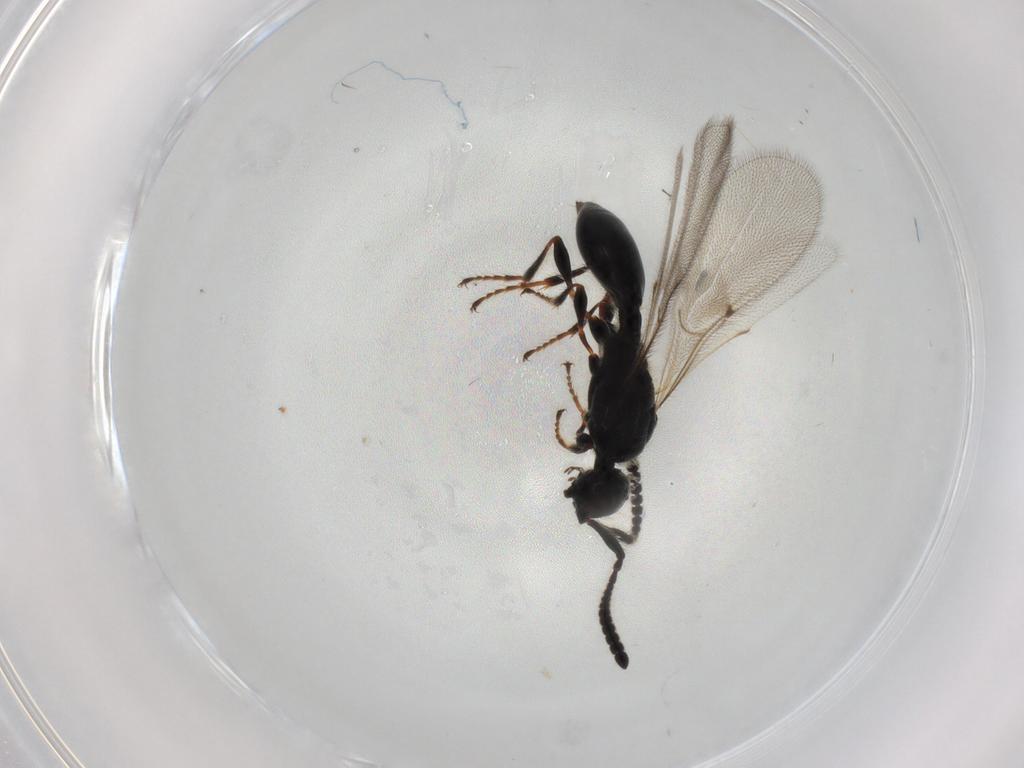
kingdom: Animalia
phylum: Arthropoda
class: Insecta
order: Hymenoptera
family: Diapriidae
